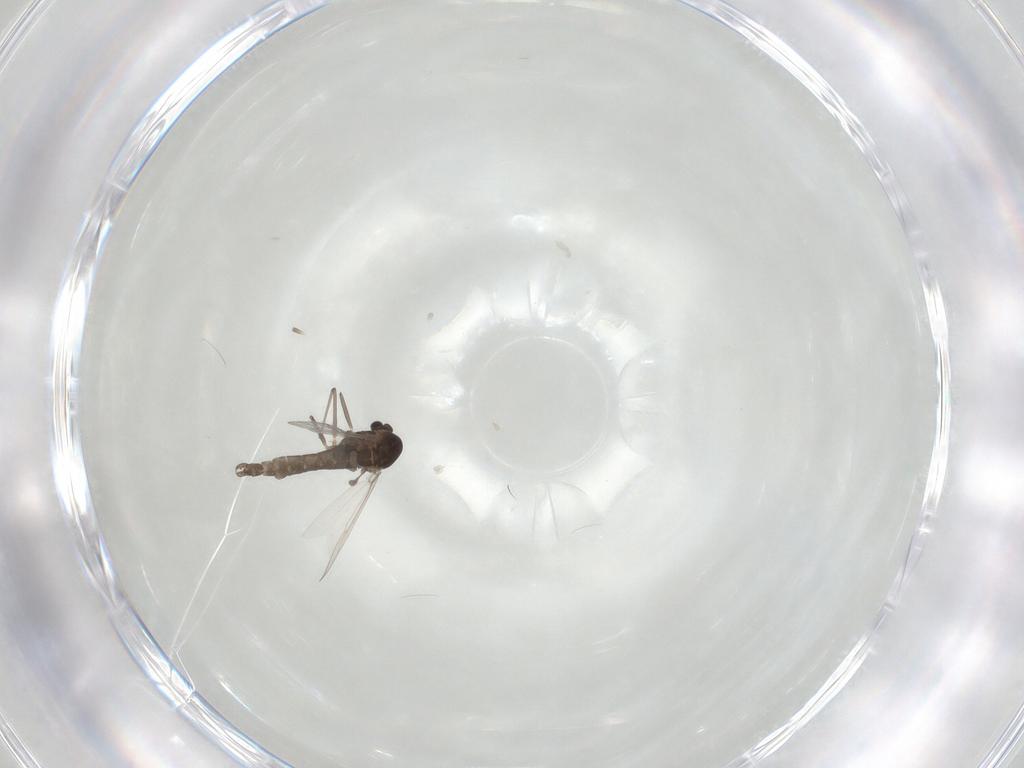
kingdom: Animalia
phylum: Arthropoda
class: Insecta
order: Diptera
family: Chironomidae
